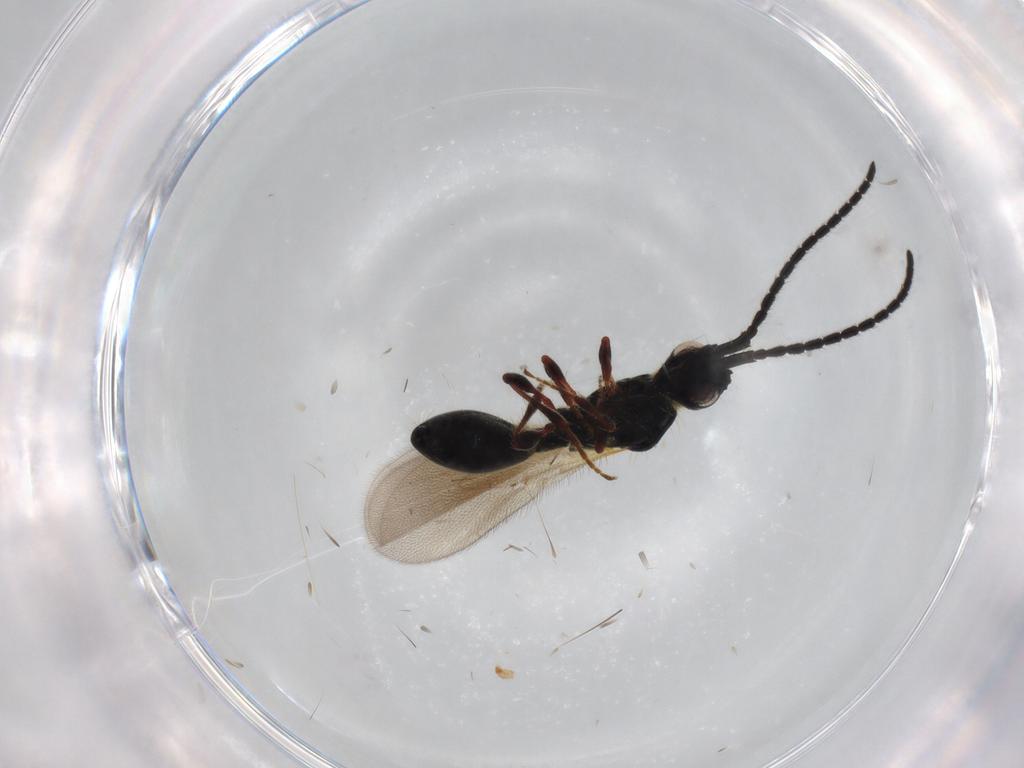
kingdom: Animalia
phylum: Arthropoda
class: Insecta
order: Hymenoptera
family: Diapriidae
